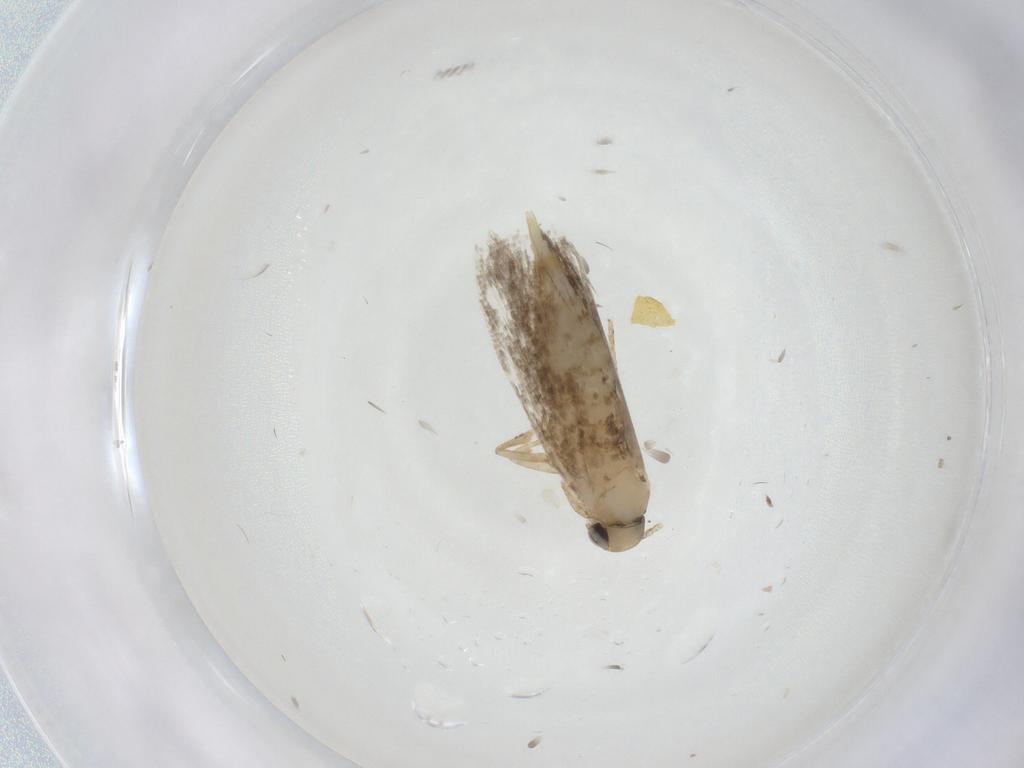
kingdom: Animalia
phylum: Arthropoda
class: Insecta
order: Lepidoptera
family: Tineidae
